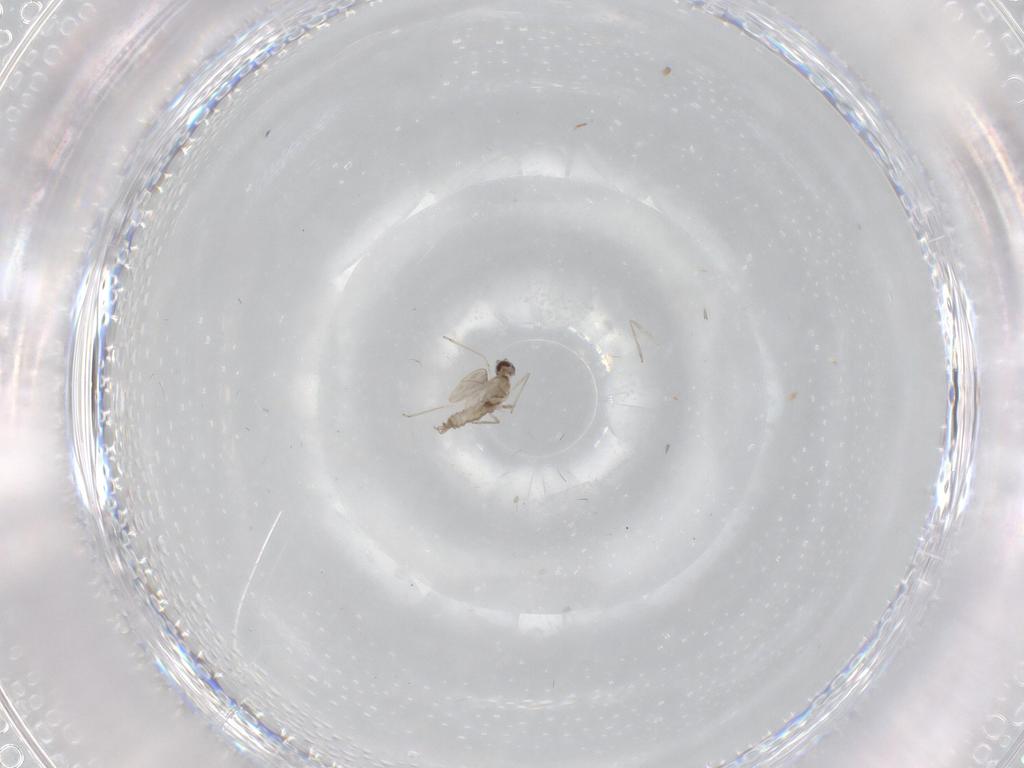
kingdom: Animalia
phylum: Arthropoda
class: Insecta
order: Diptera
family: Cecidomyiidae
